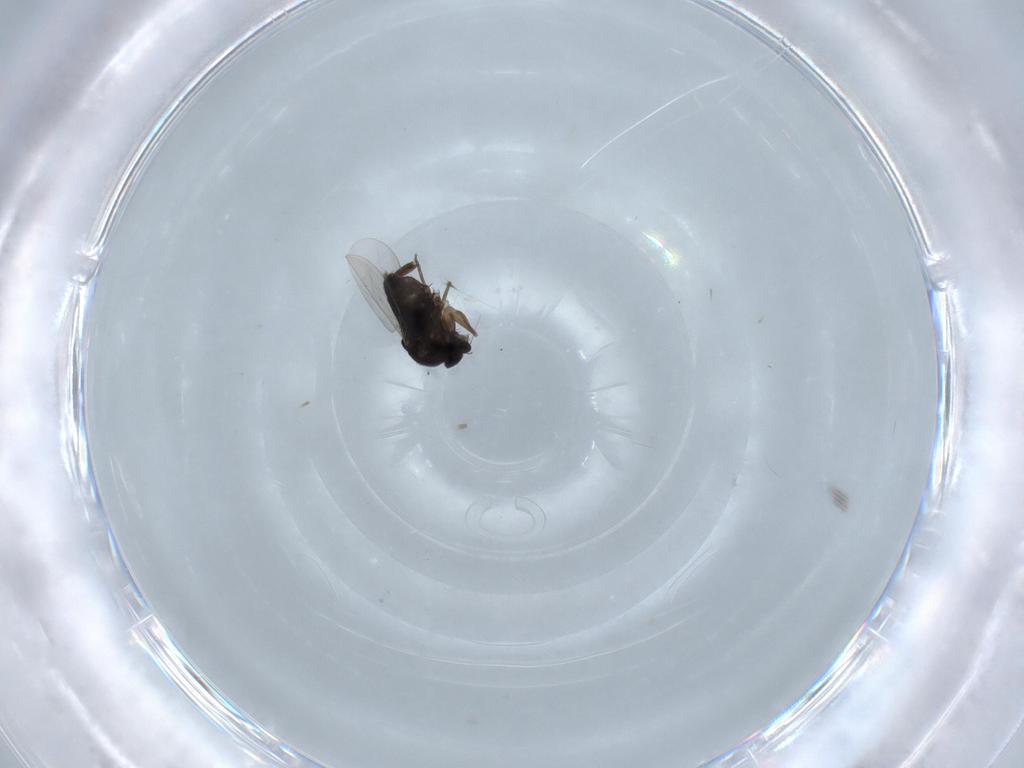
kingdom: Animalia
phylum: Arthropoda
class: Insecta
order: Diptera
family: Phoridae
